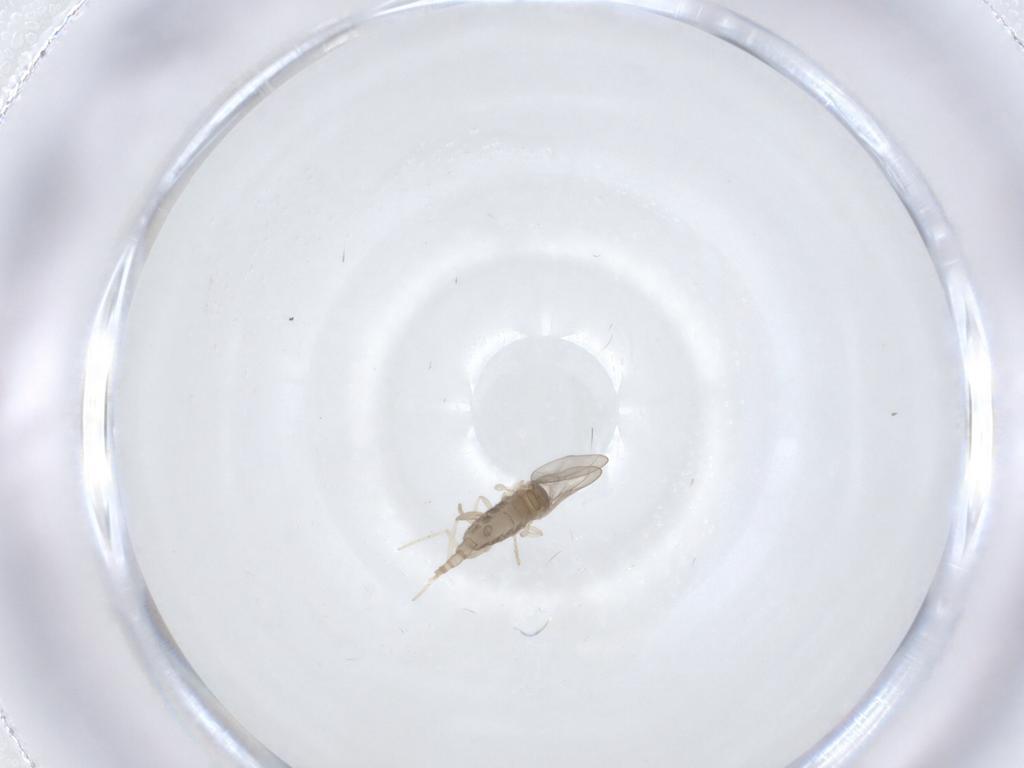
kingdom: Animalia
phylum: Arthropoda
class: Insecta
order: Diptera
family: Cecidomyiidae
